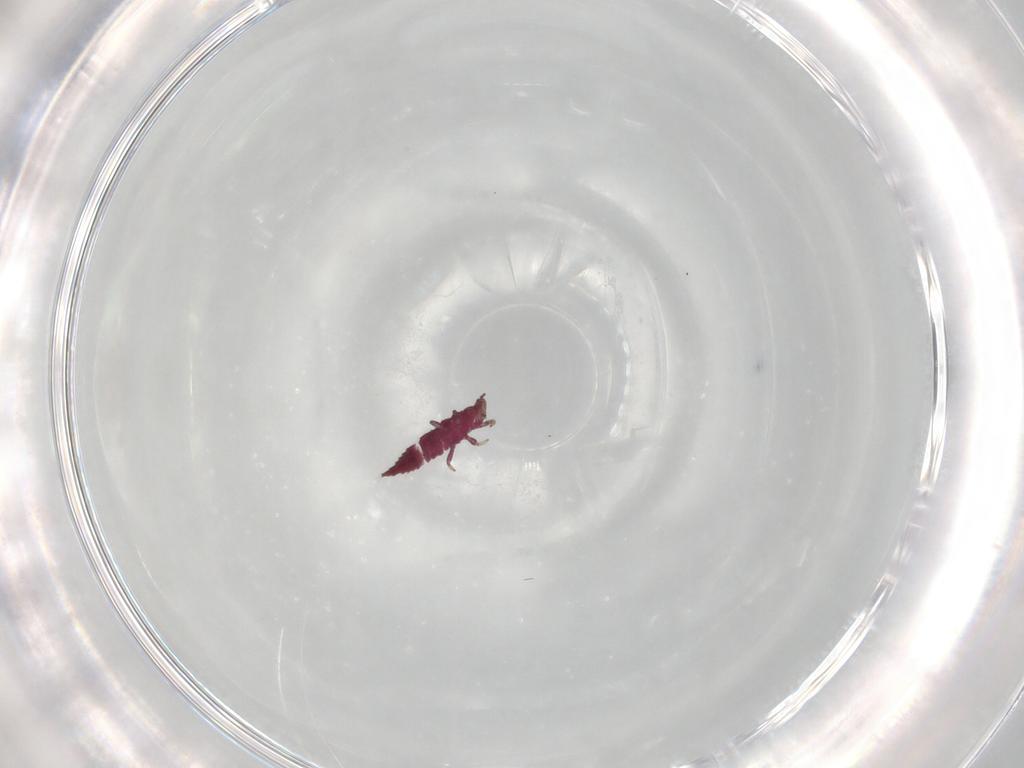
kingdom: Animalia
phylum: Arthropoda
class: Insecta
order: Thysanoptera
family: Phlaeothripidae
